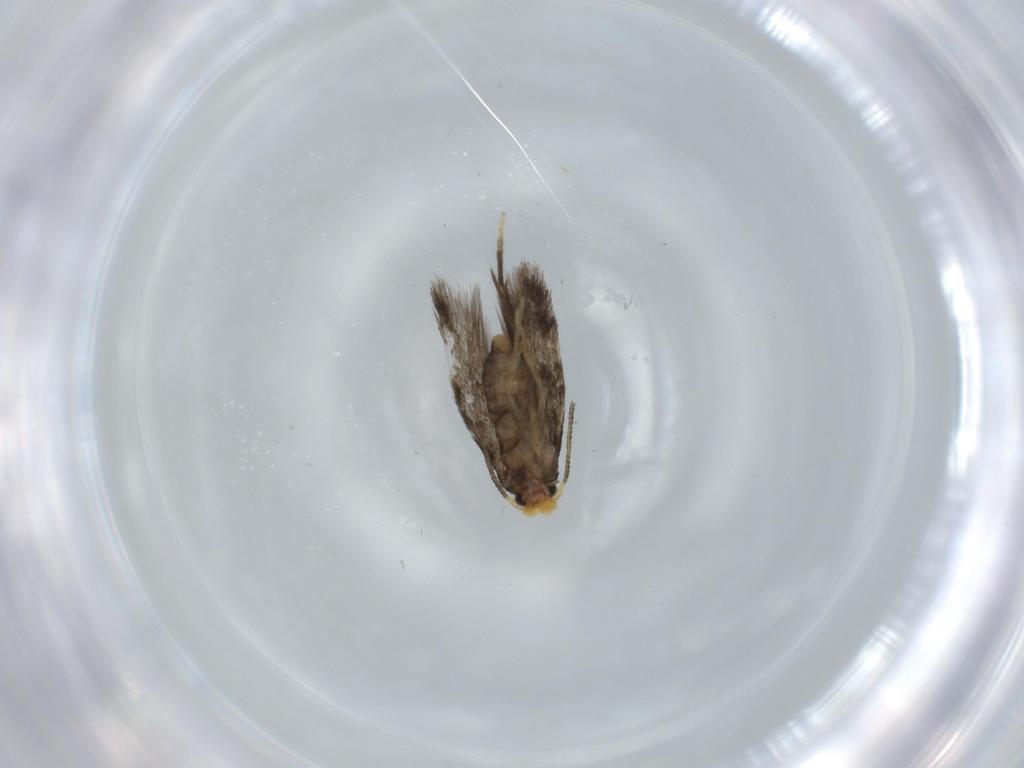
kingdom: Animalia
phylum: Arthropoda
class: Insecta
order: Lepidoptera
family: Nepticulidae
